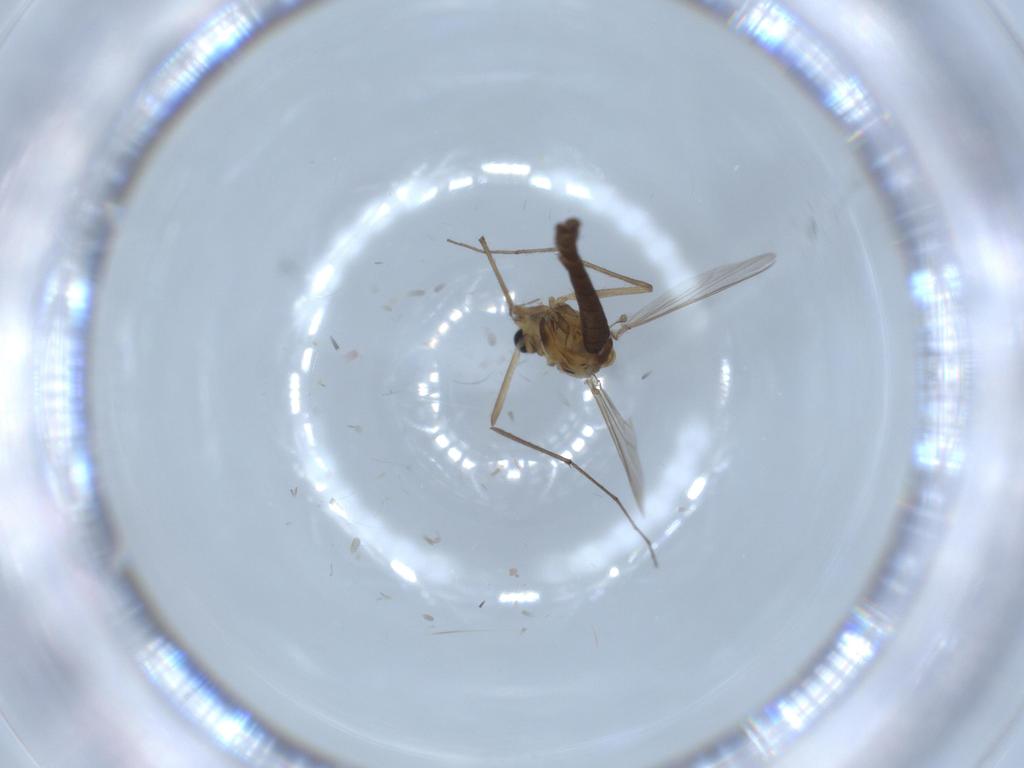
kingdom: Animalia
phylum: Arthropoda
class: Insecta
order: Diptera
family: Chironomidae
